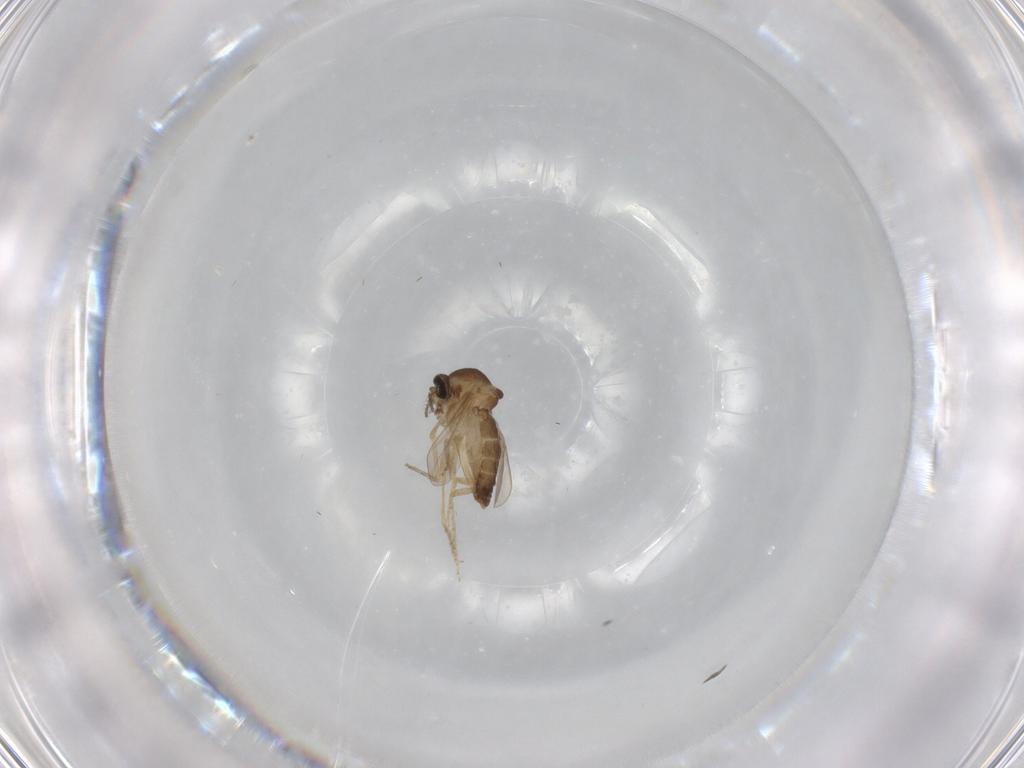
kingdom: Animalia
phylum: Arthropoda
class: Insecta
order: Diptera
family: Ceratopogonidae
